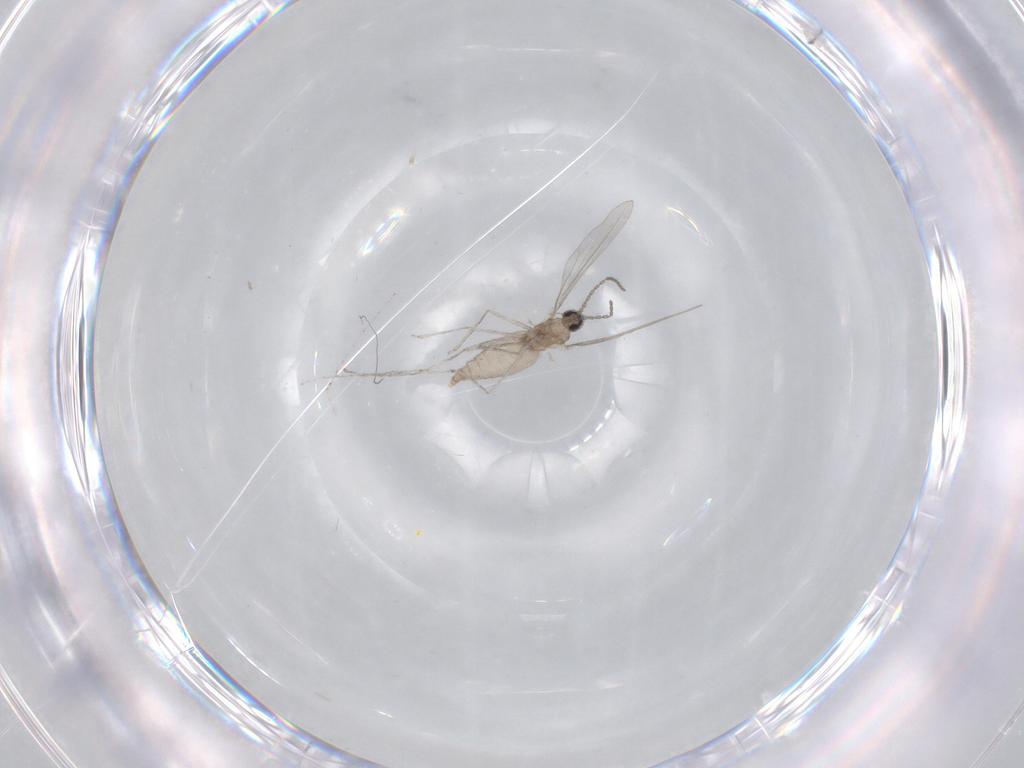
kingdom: Animalia
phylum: Arthropoda
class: Insecta
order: Diptera
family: Cecidomyiidae
